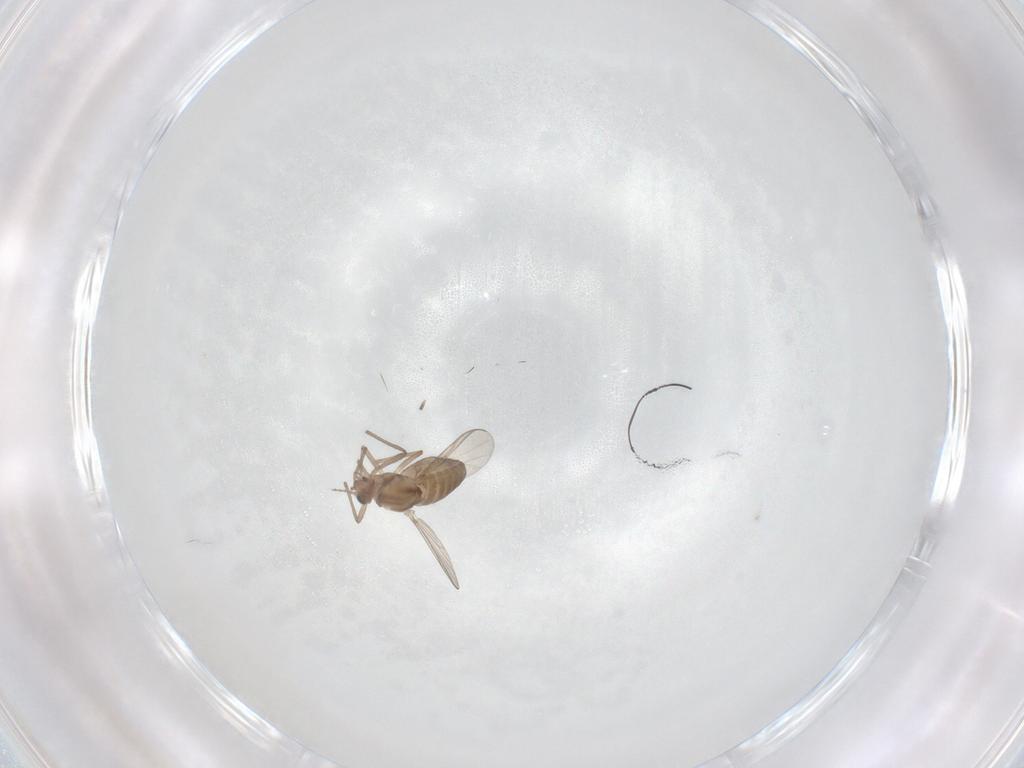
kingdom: Animalia
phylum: Arthropoda
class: Insecta
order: Diptera
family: Chironomidae
